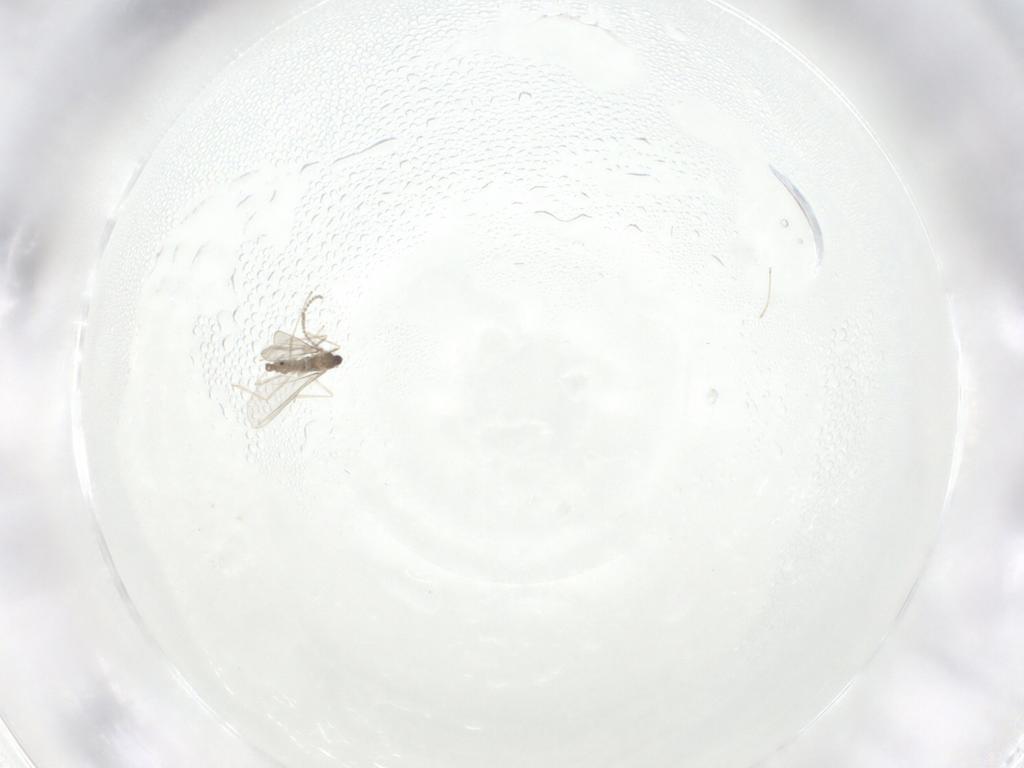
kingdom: Animalia
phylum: Arthropoda
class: Insecta
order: Diptera
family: Cecidomyiidae
